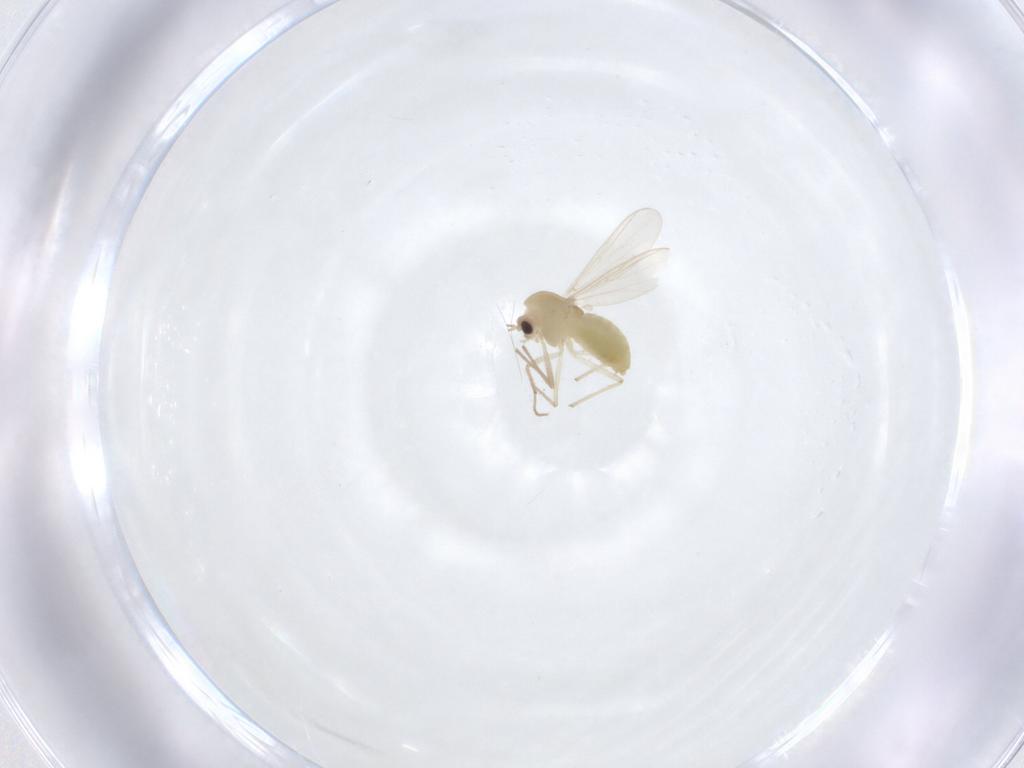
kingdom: Animalia
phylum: Arthropoda
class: Insecta
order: Diptera
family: Chironomidae
